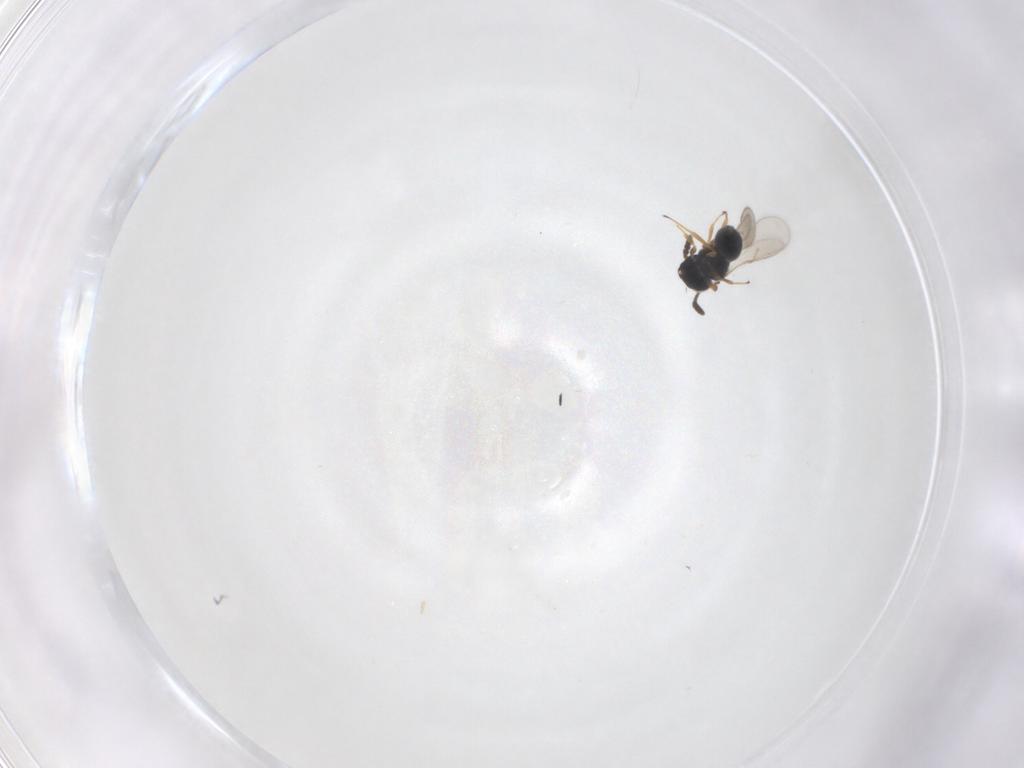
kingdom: Animalia
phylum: Arthropoda
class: Insecta
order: Hymenoptera
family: Scelionidae
